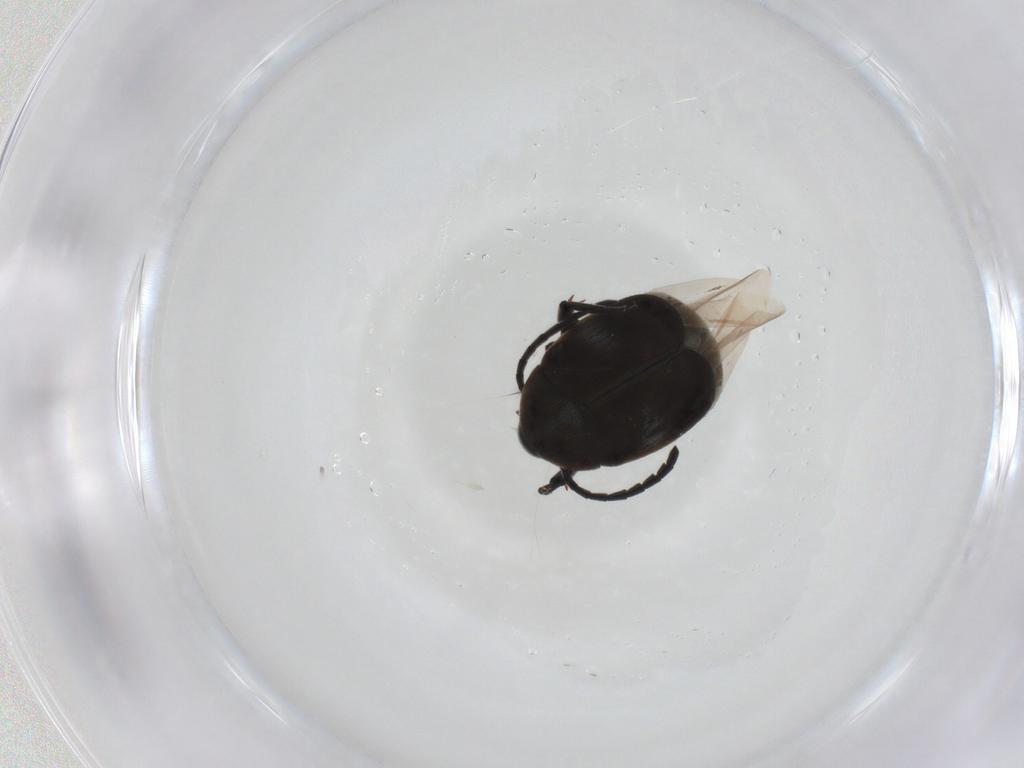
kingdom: Animalia
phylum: Arthropoda
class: Insecta
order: Coleoptera
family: Chrysomelidae
